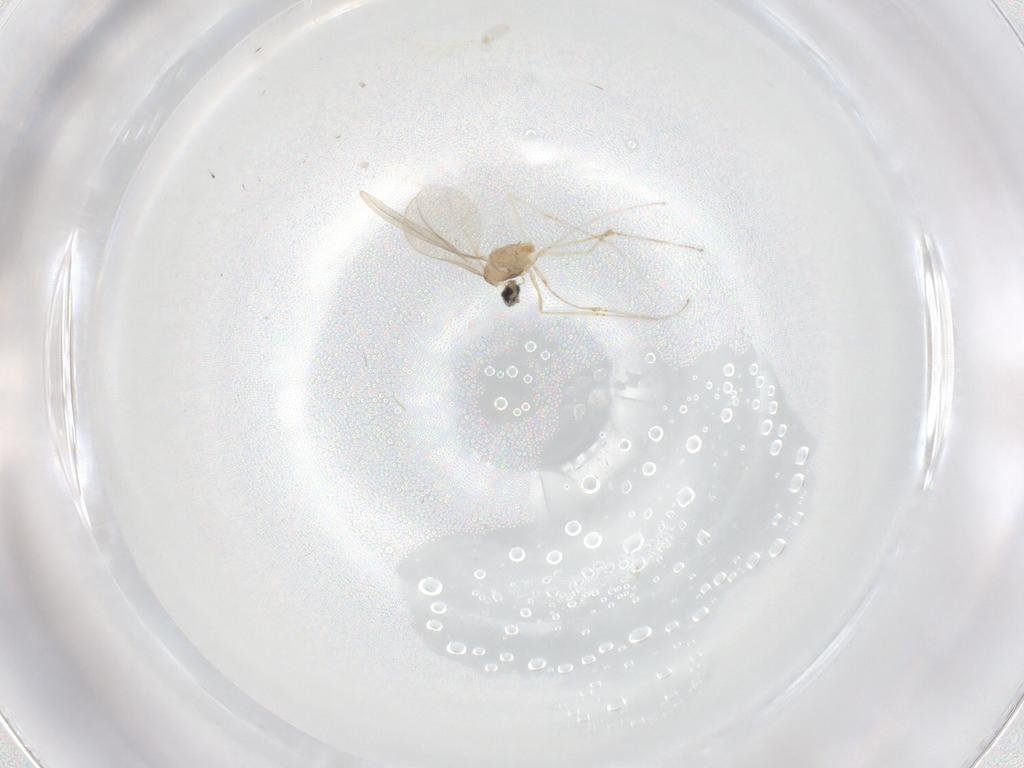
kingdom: Animalia
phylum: Arthropoda
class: Insecta
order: Diptera
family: Cecidomyiidae
